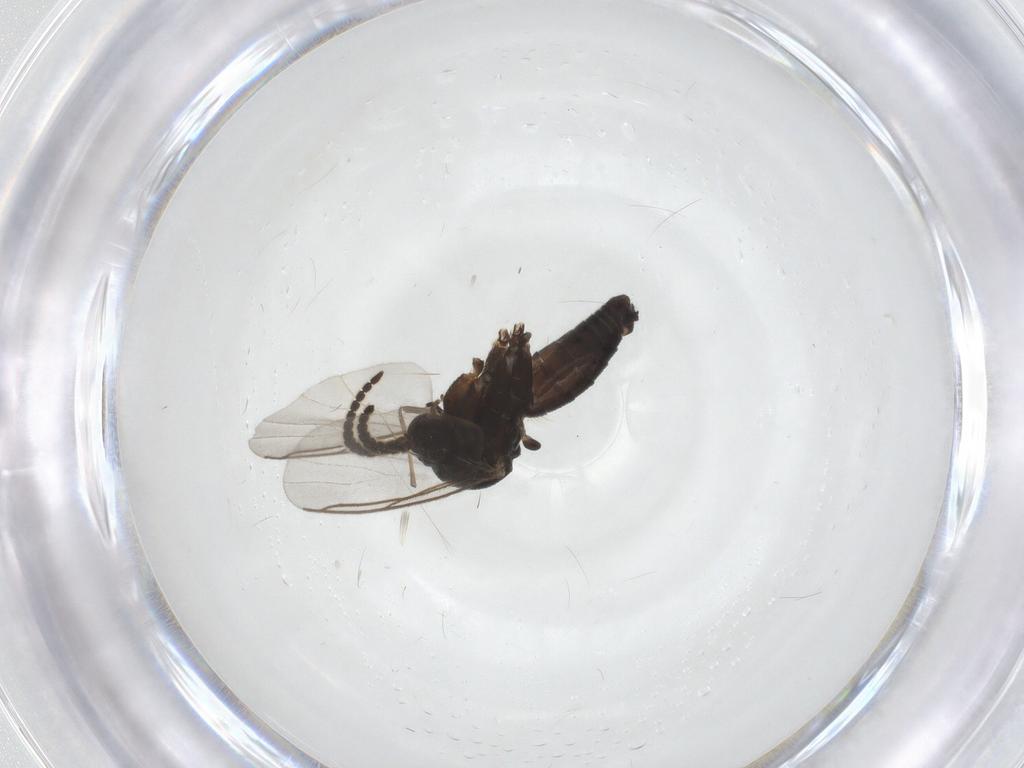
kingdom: Animalia
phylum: Arthropoda
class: Insecta
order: Diptera
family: Mycetophilidae
